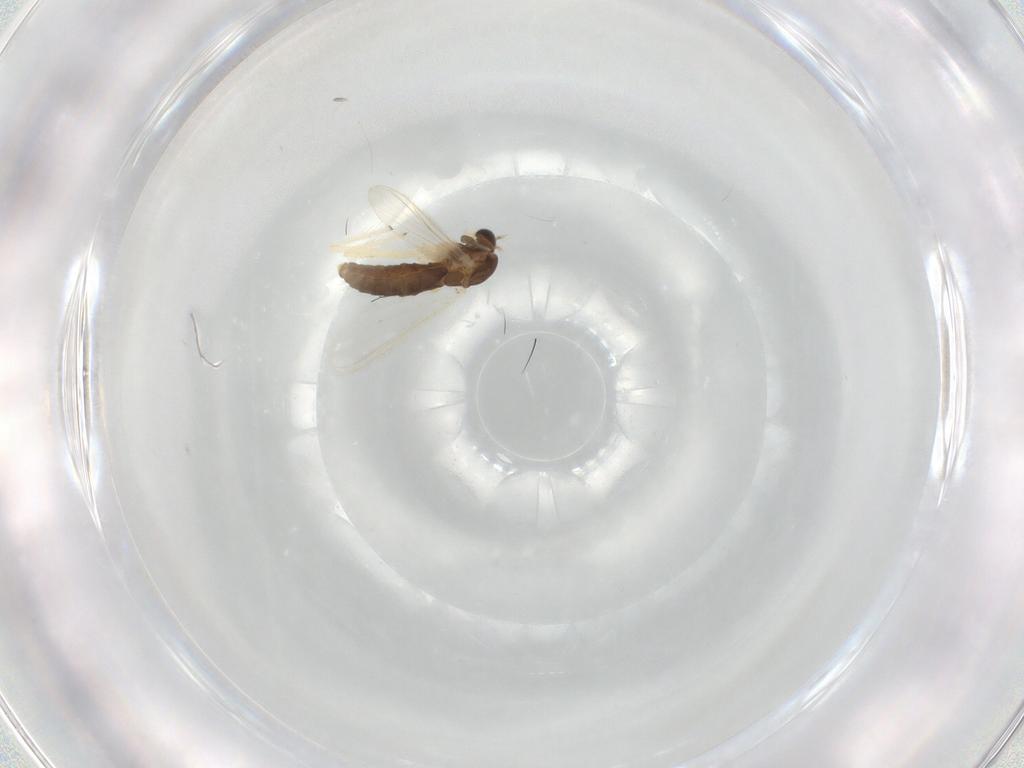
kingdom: Animalia
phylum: Arthropoda
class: Insecta
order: Diptera
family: Chironomidae
